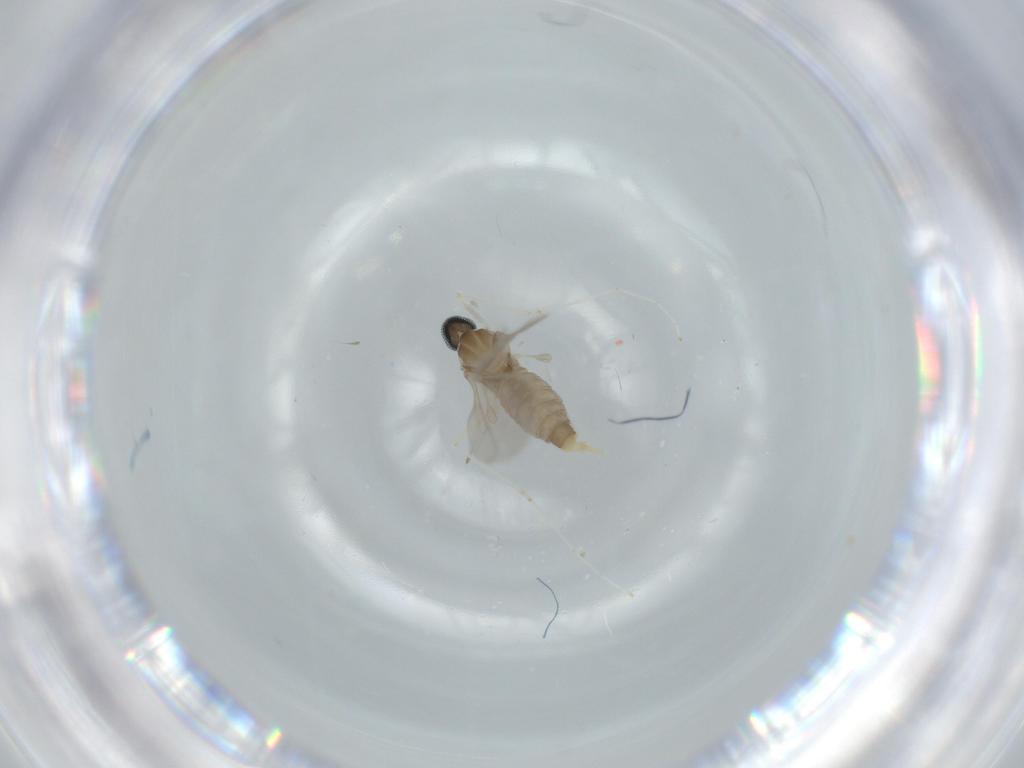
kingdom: Animalia
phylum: Arthropoda
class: Insecta
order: Diptera
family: Cecidomyiidae
